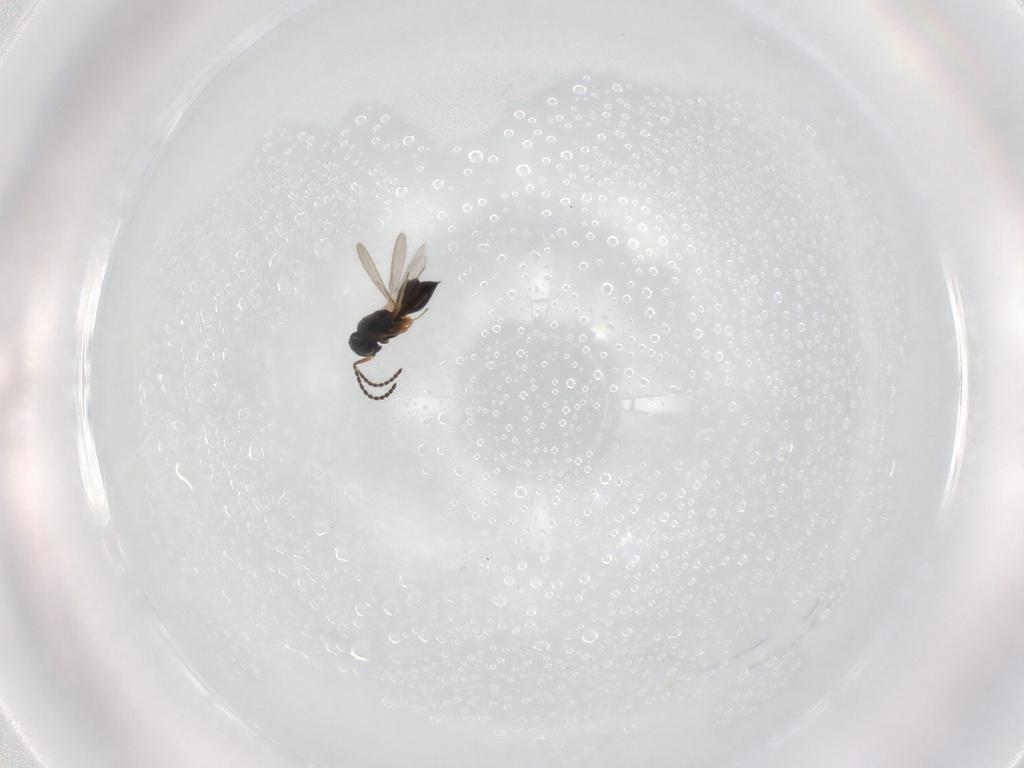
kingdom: Animalia
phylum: Arthropoda
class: Insecta
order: Hymenoptera
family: Scelionidae
